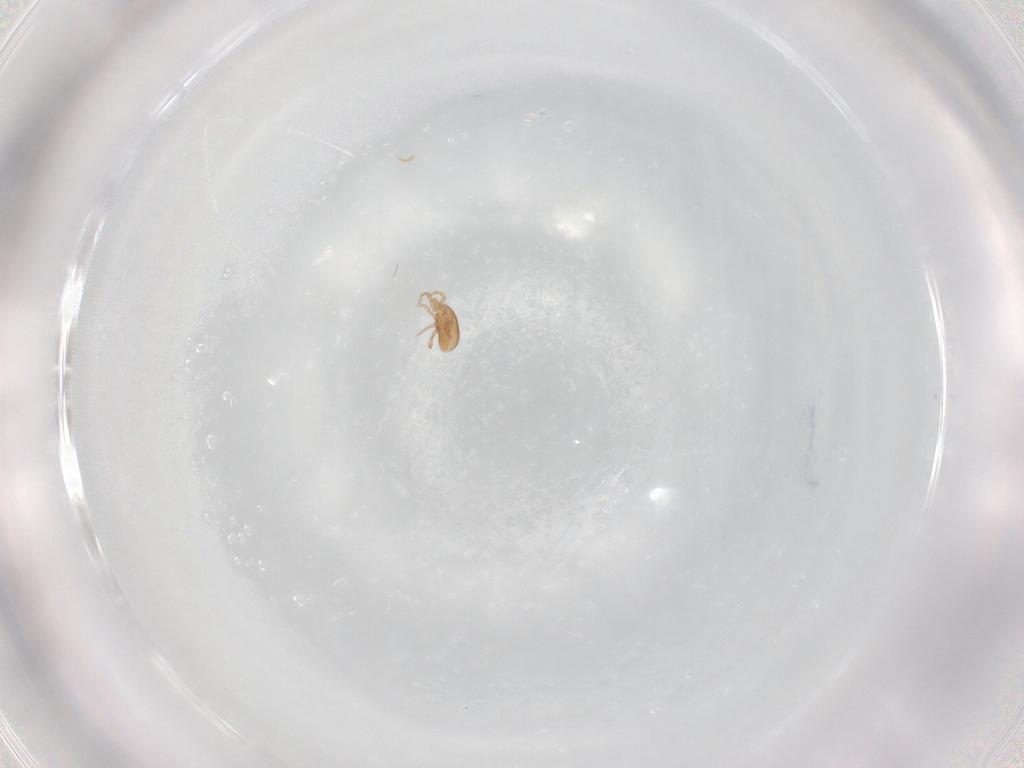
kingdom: Animalia
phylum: Arthropoda
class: Arachnida
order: Mesostigmata
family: Melicharidae
